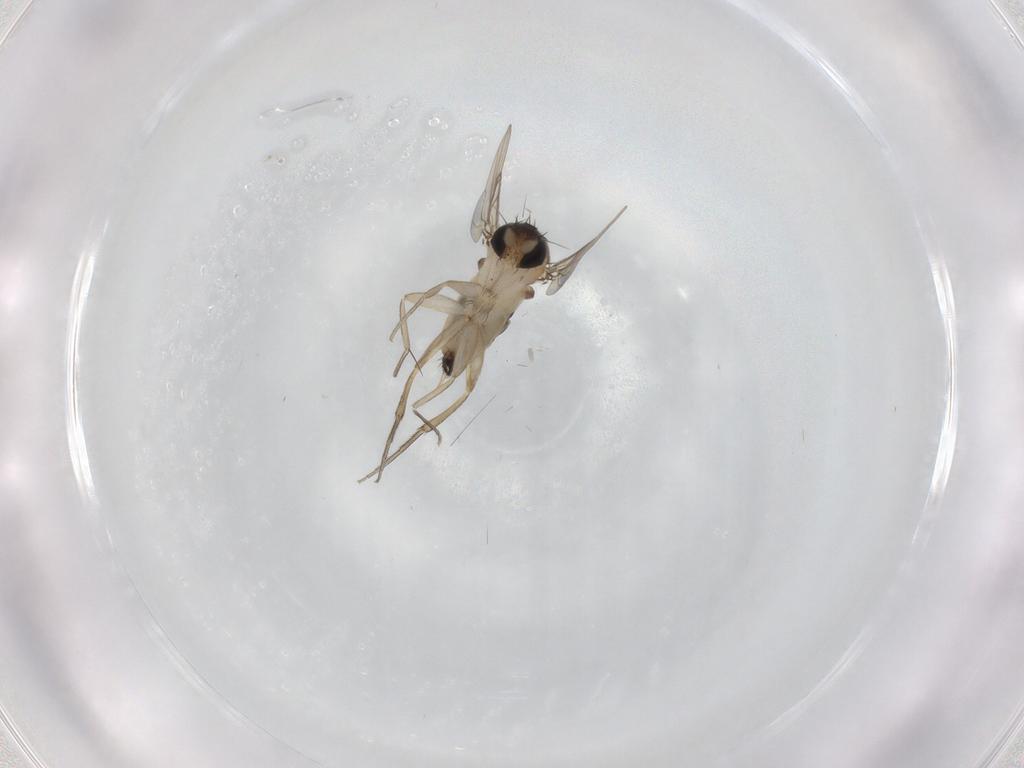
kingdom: Animalia
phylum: Arthropoda
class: Insecta
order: Diptera
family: Phoridae
